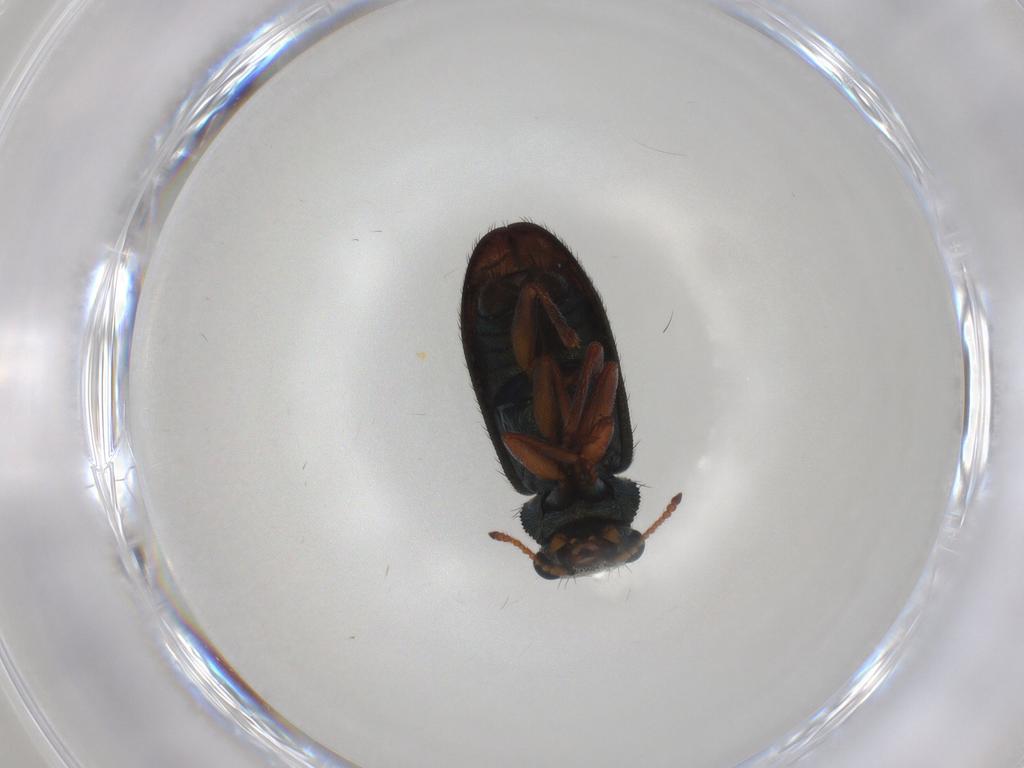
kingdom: Animalia
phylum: Arthropoda
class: Insecta
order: Coleoptera
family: Melyridae
